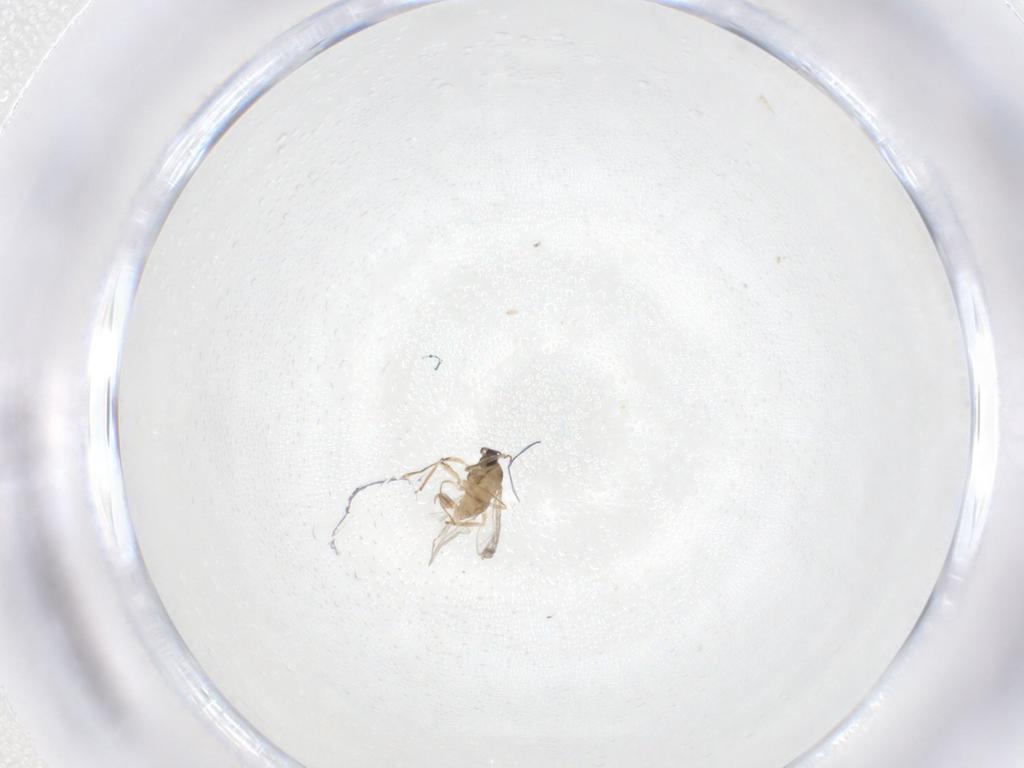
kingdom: Animalia
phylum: Arthropoda
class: Insecta
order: Diptera
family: Cecidomyiidae
